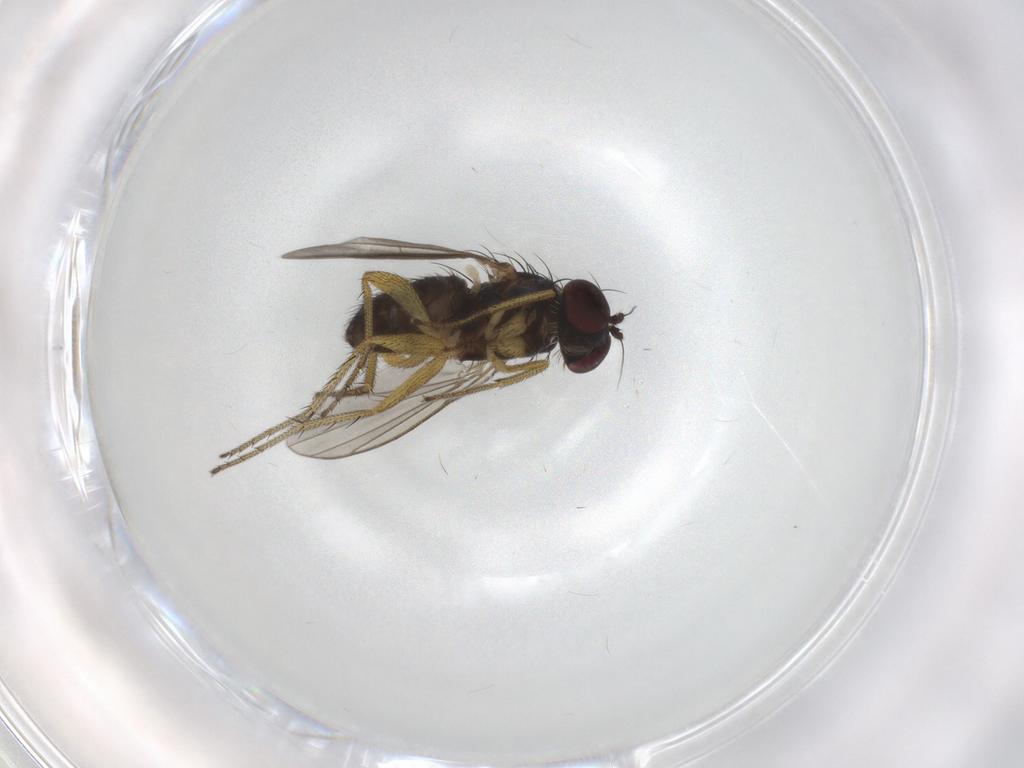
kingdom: Animalia
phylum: Arthropoda
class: Insecta
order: Diptera
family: Sciaridae
